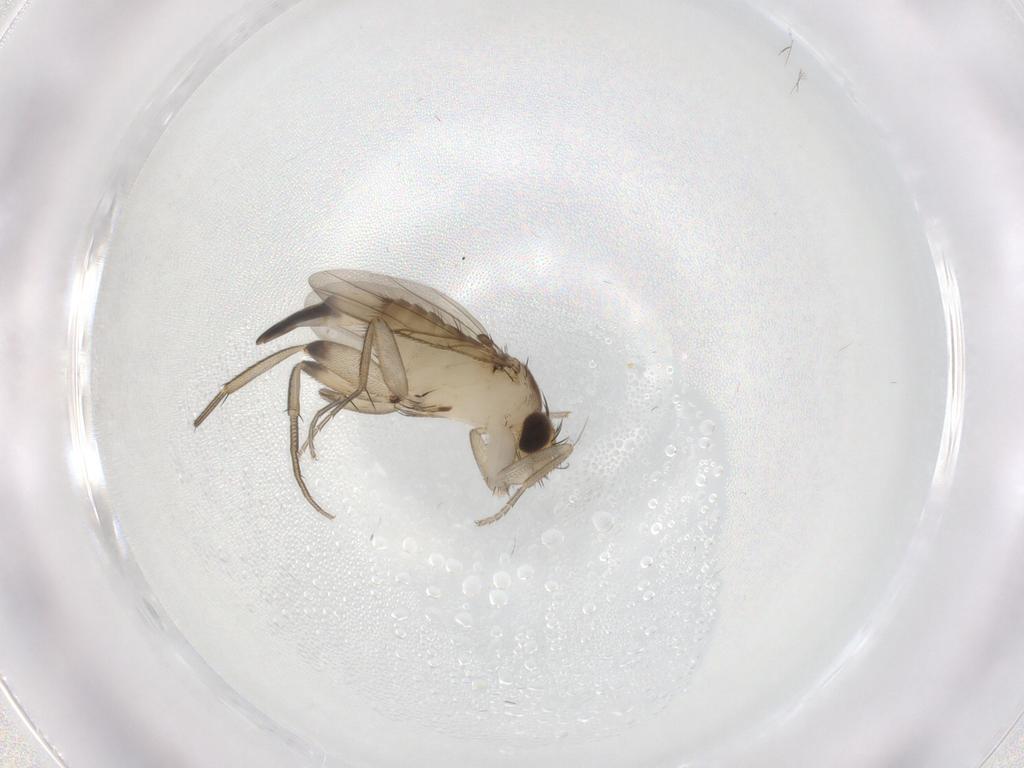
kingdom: Animalia
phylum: Arthropoda
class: Insecta
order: Diptera
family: Phoridae
